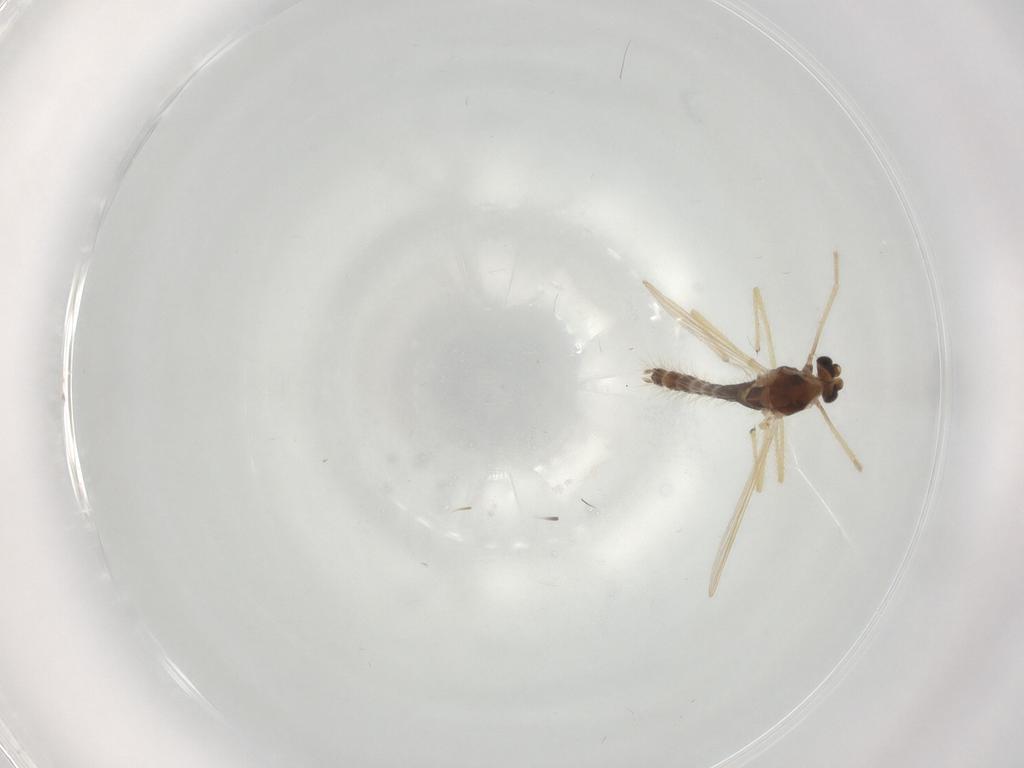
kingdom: Animalia
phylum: Arthropoda
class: Insecta
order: Diptera
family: Chironomidae
